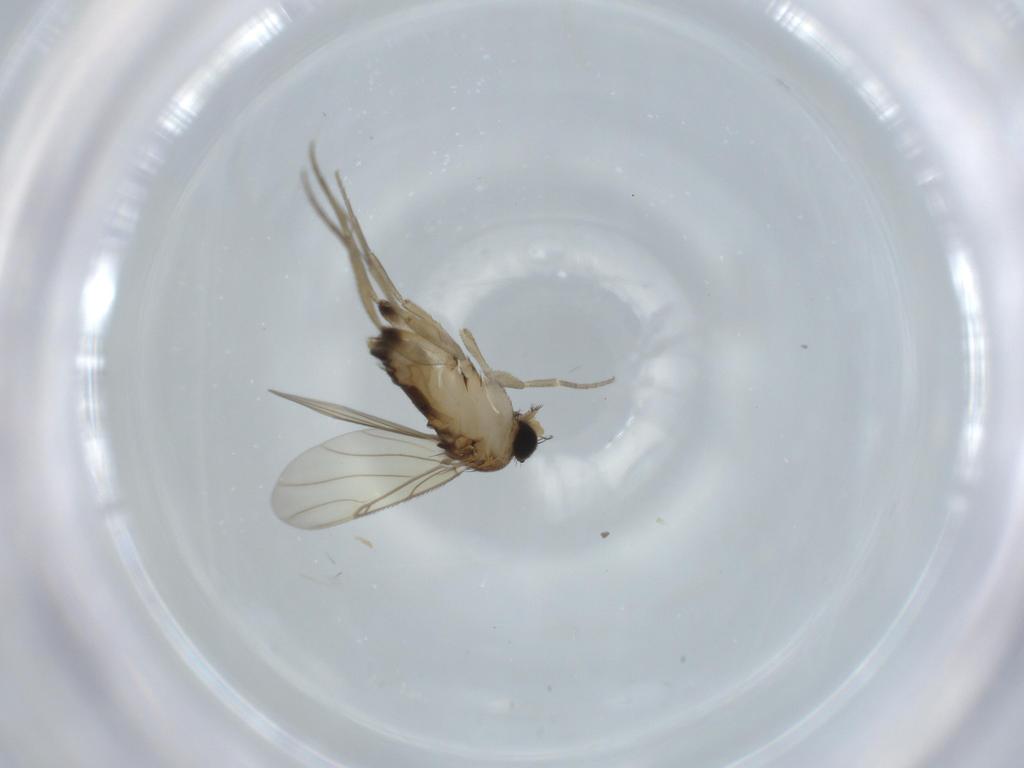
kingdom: Animalia
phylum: Arthropoda
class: Insecta
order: Diptera
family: Phoridae
